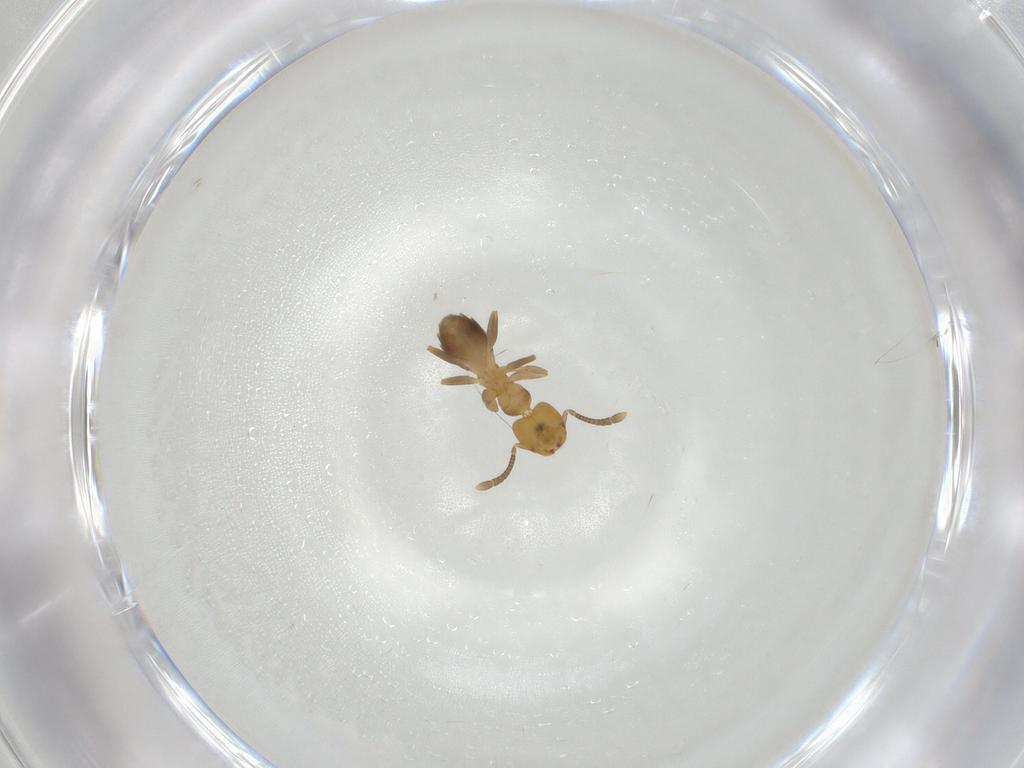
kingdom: Animalia
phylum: Arthropoda
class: Insecta
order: Hymenoptera
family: Formicidae
